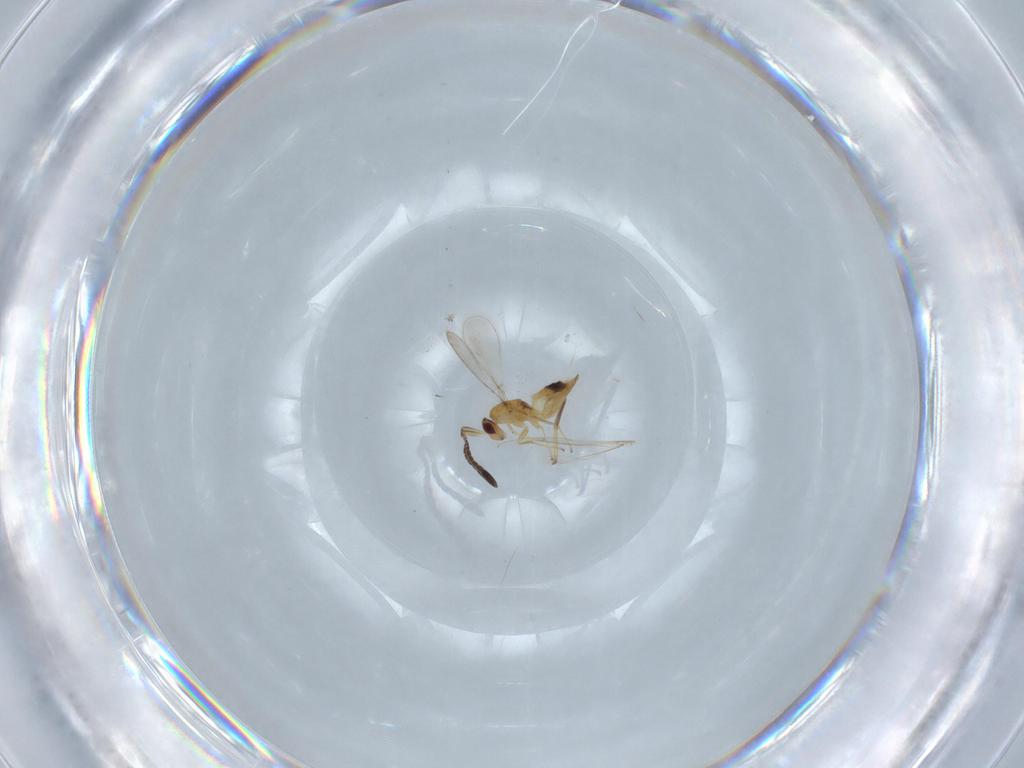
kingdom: Animalia
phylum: Arthropoda
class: Insecta
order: Hymenoptera
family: Mymaridae
